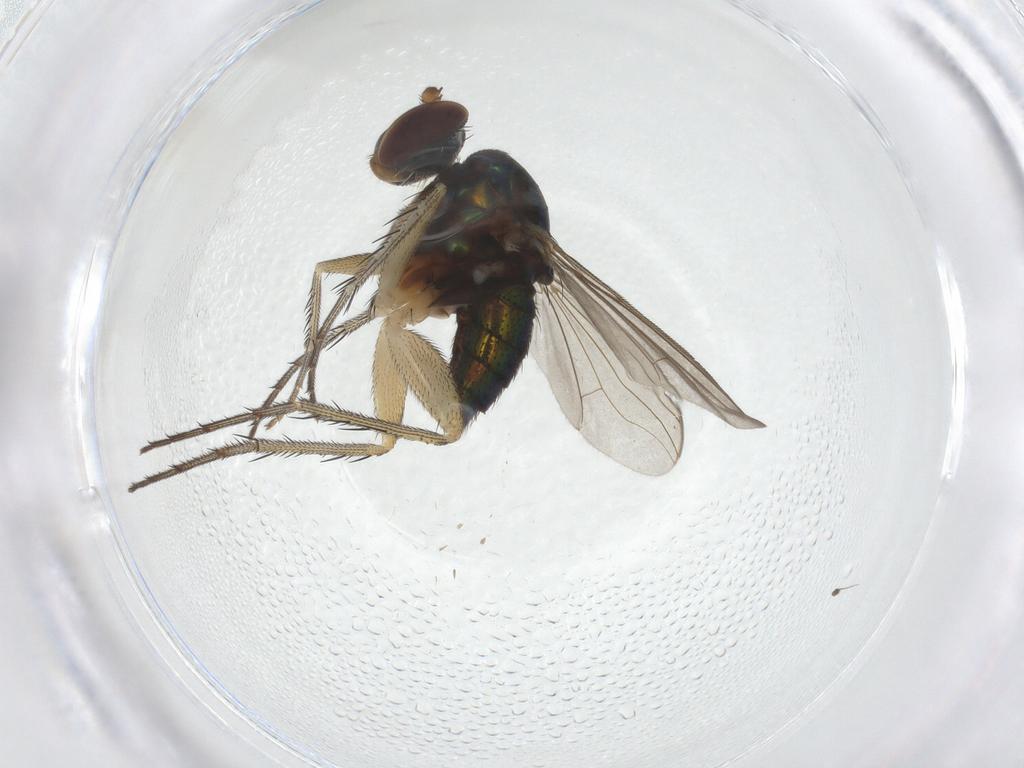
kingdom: Animalia
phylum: Arthropoda
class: Insecta
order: Diptera
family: Dolichopodidae
